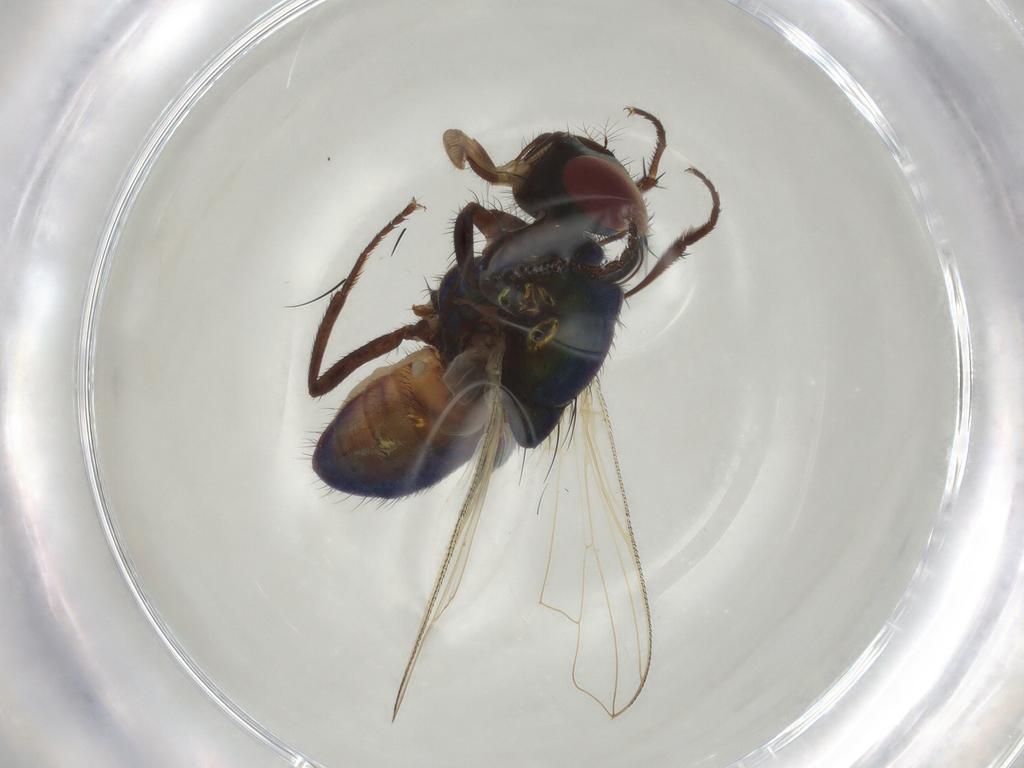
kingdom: Animalia
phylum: Arthropoda
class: Insecta
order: Diptera
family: Muscidae
